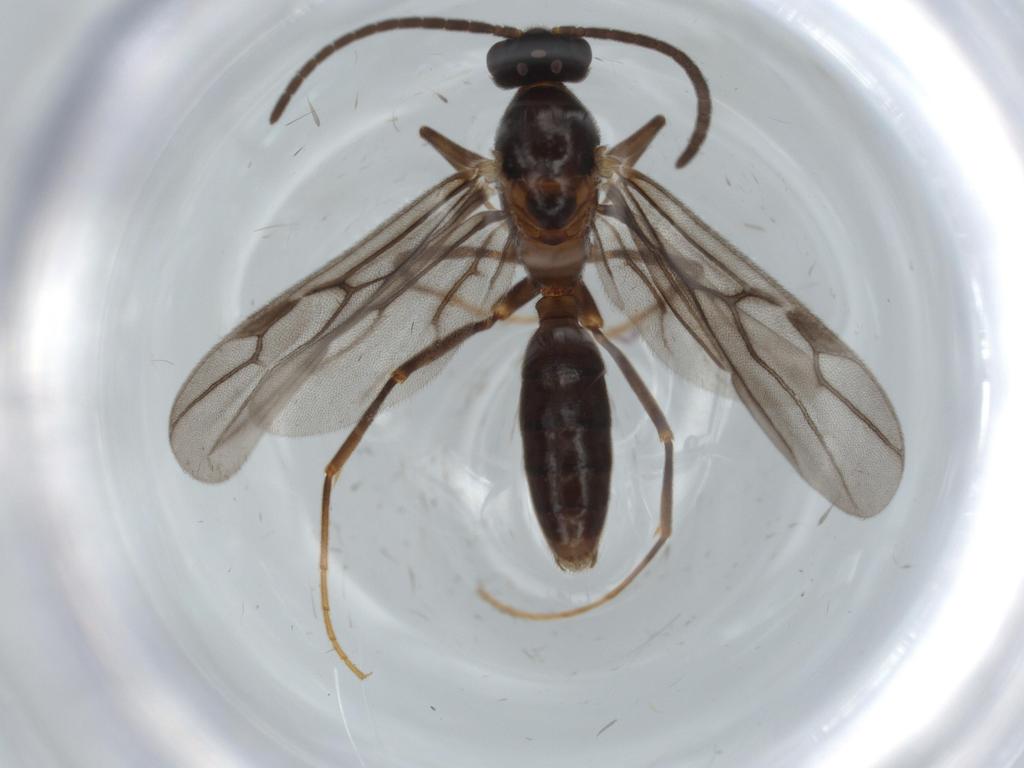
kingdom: Animalia
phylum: Arthropoda
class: Insecta
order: Hymenoptera
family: Formicidae
